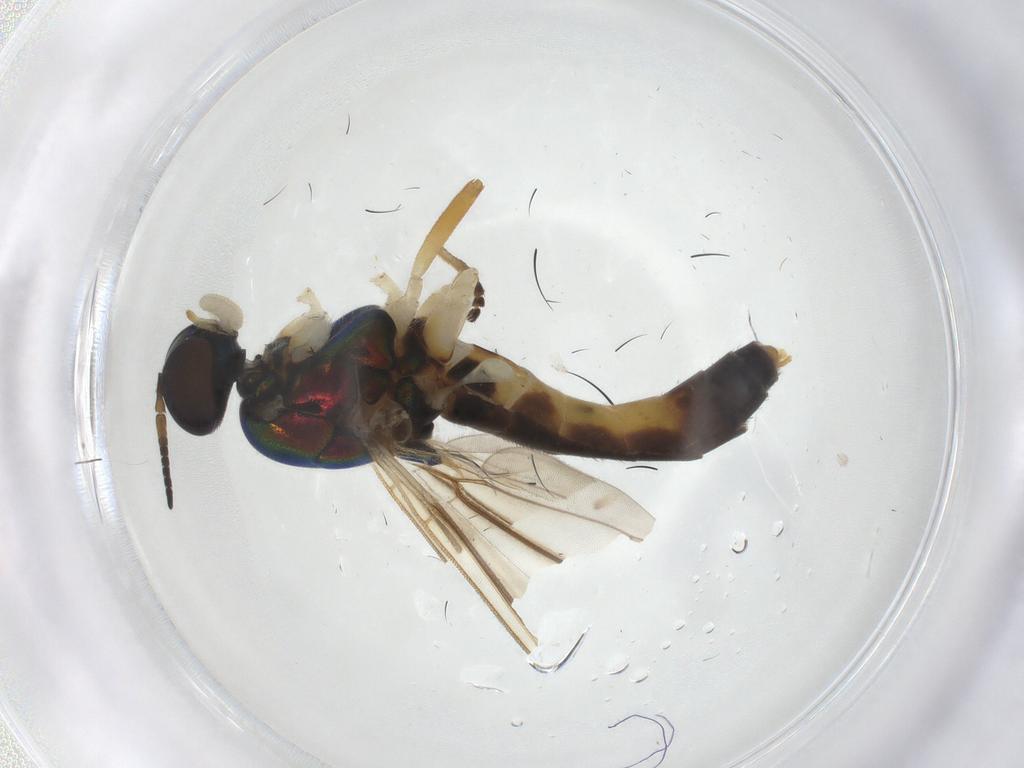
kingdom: Animalia
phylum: Arthropoda
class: Insecta
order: Diptera
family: Stratiomyidae
